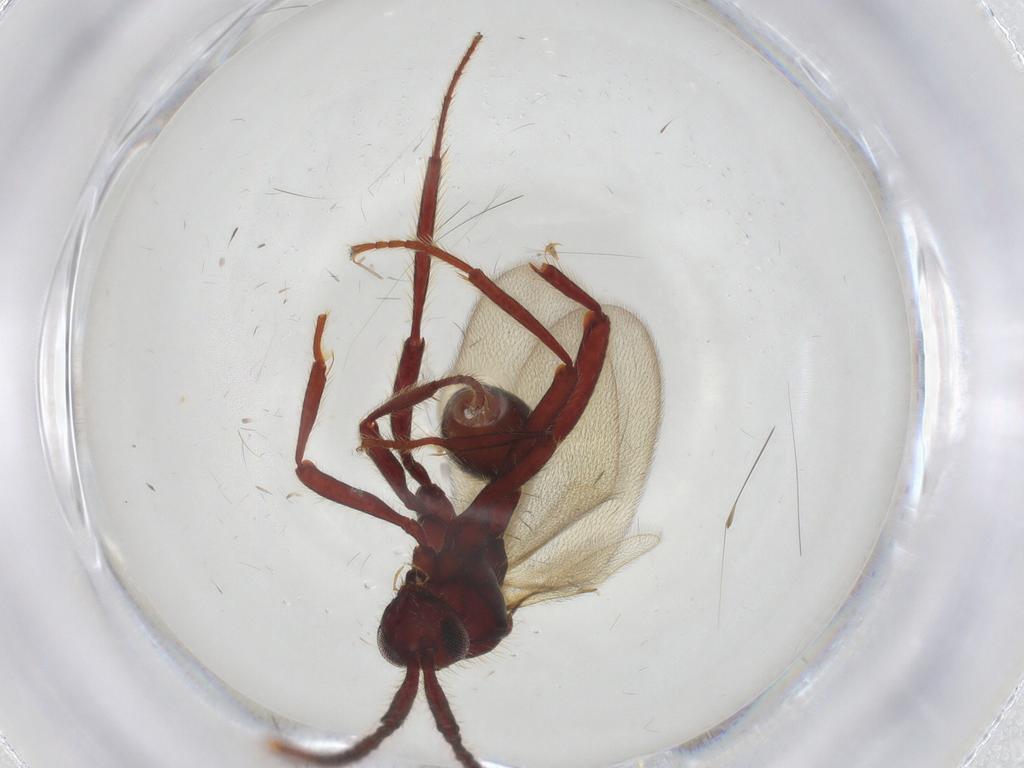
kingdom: Animalia
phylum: Arthropoda
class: Insecta
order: Hymenoptera
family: Diapriidae
